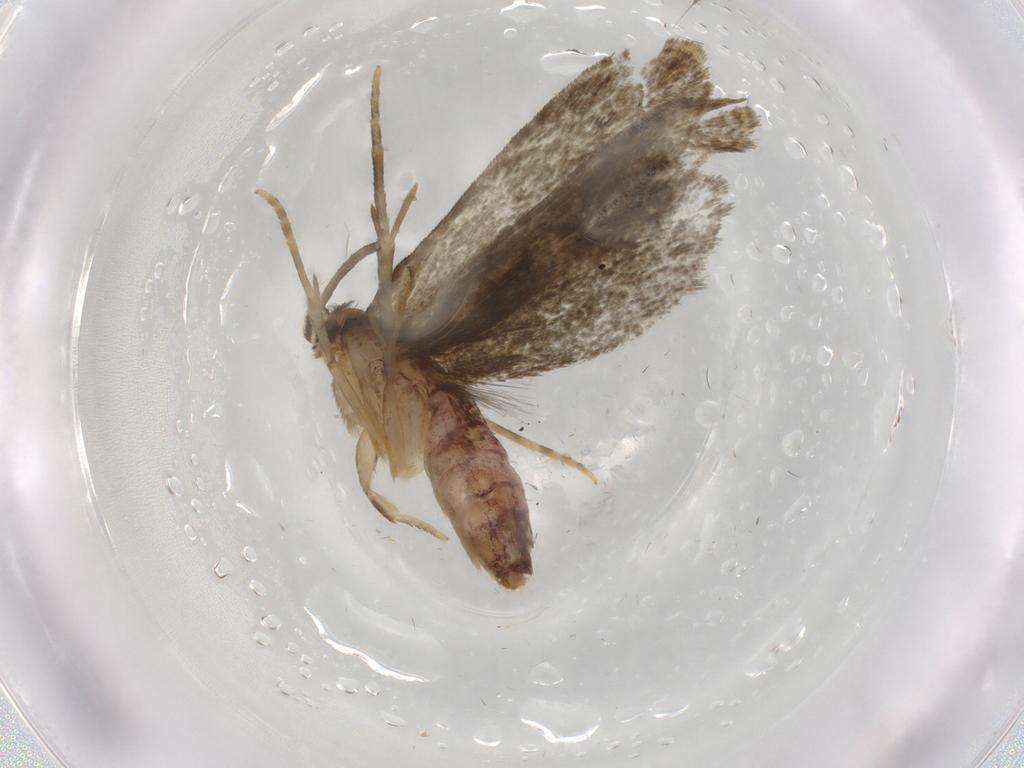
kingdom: Animalia
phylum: Arthropoda
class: Insecta
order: Lepidoptera
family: Dryadaulidae
